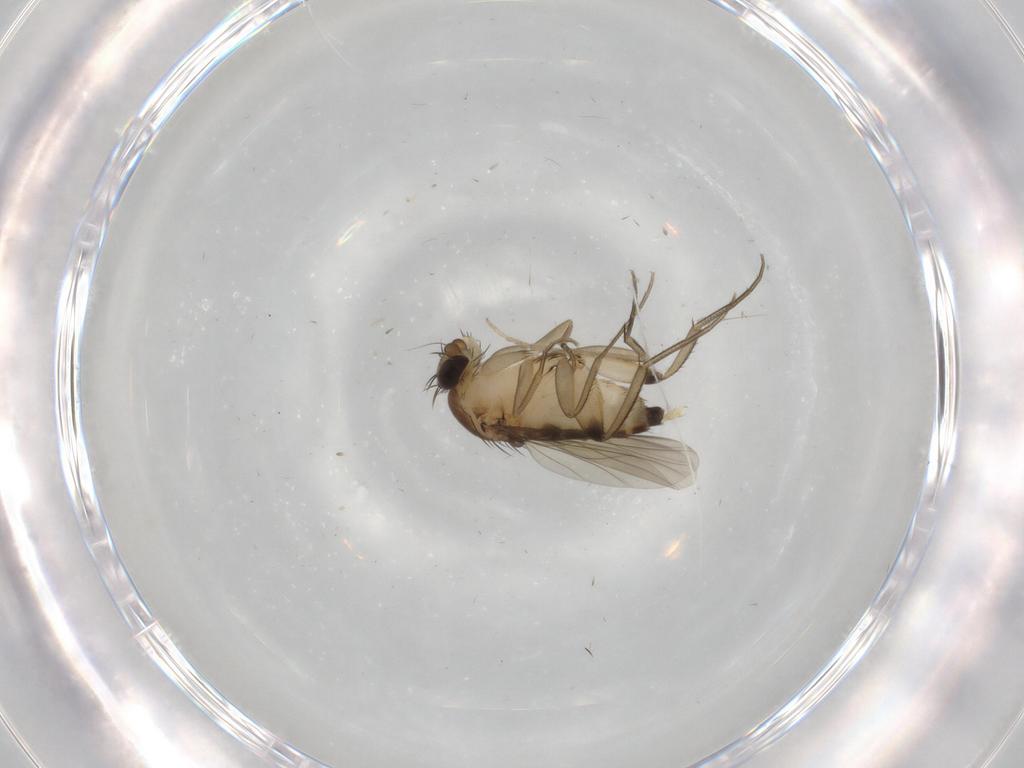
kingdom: Animalia
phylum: Arthropoda
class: Insecta
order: Diptera
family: Chironomidae
